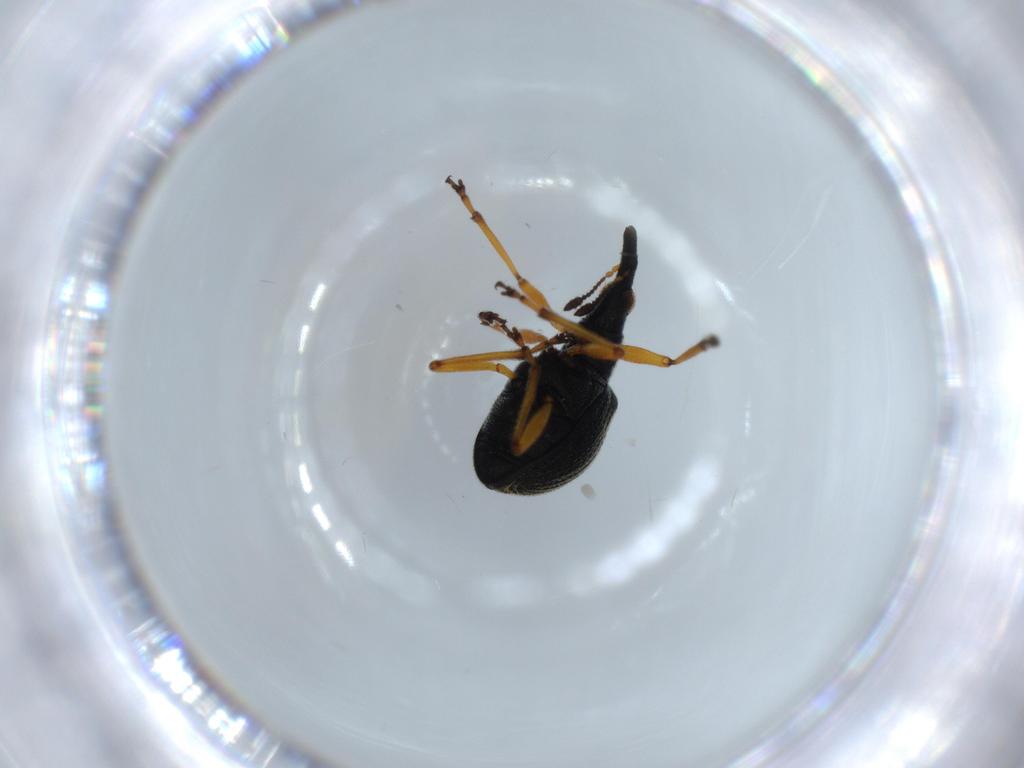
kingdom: Animalia
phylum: Arthropoda
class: Insecta
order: Coleoptera
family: Brentidae
